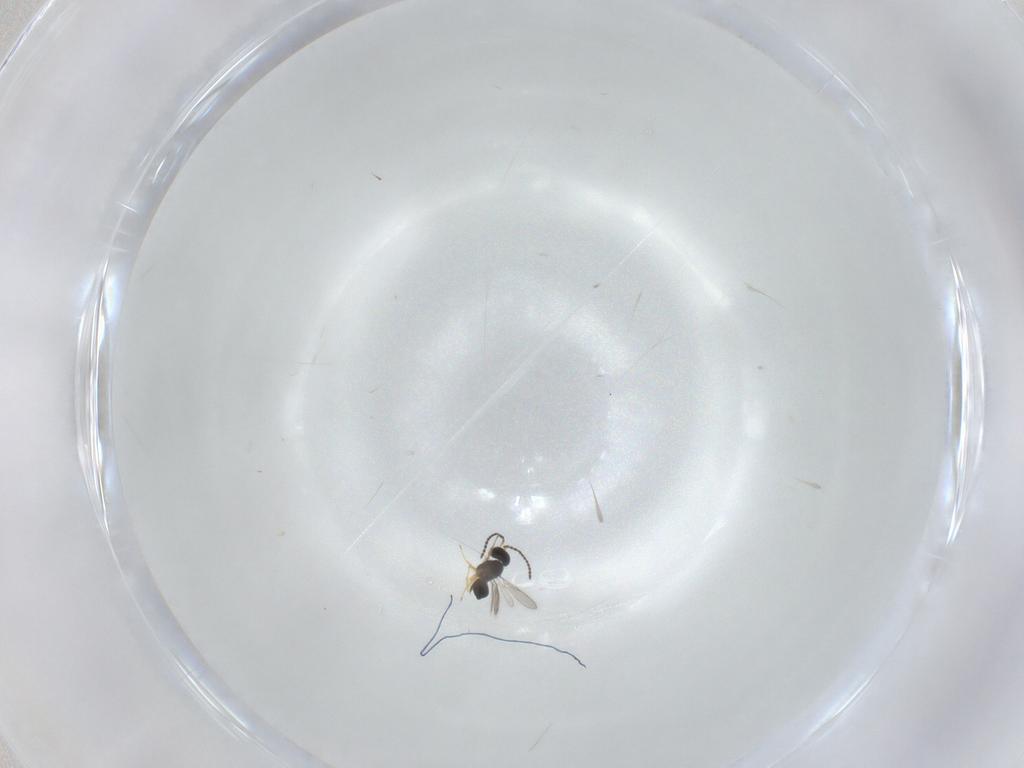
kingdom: Animalia
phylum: Arthropoda
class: Insecta
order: Hymenoptera
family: Scelionidae
